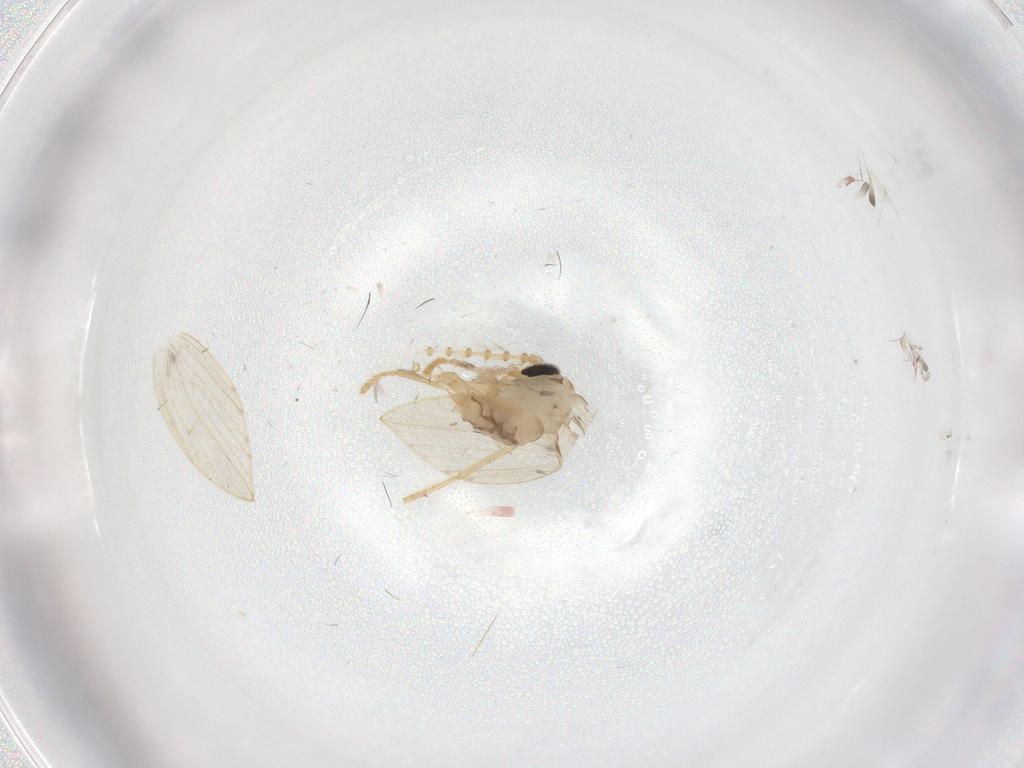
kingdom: Animalia
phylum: Arthropoda
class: Insecta
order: Diptera
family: Psychodidae
